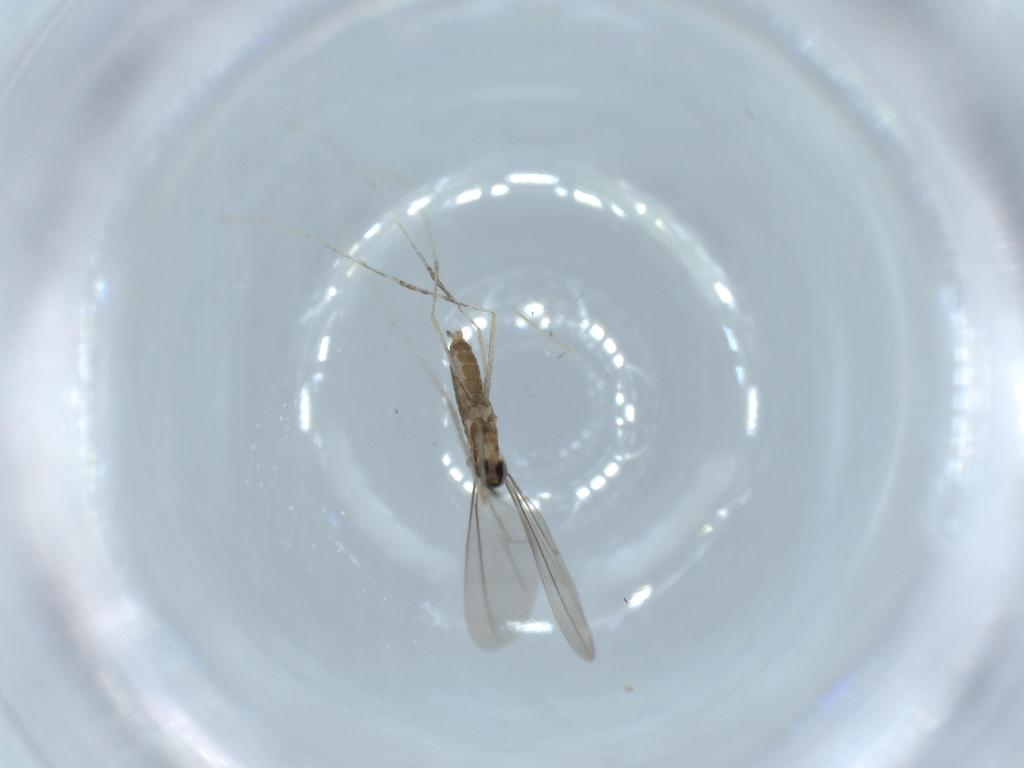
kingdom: Animalia
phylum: Arthropoda
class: Insecta
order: Diptera
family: Cecidomyiidae
